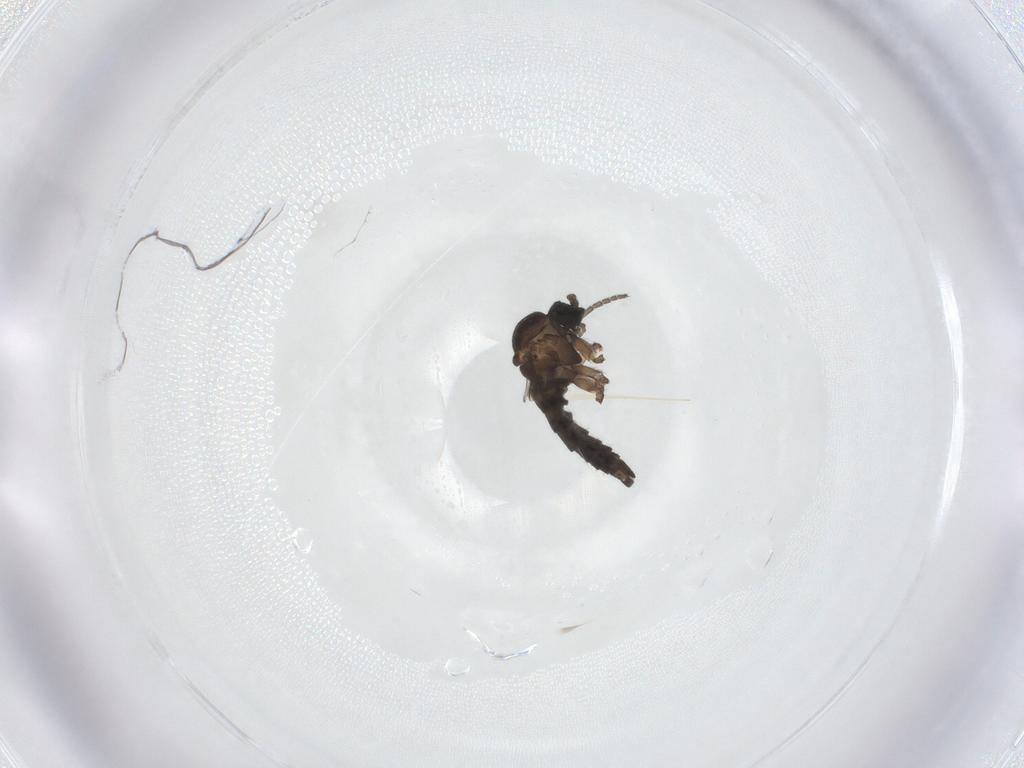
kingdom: Animalia
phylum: Arthropoda
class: Insecta
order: Diptera
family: Sciaridae
